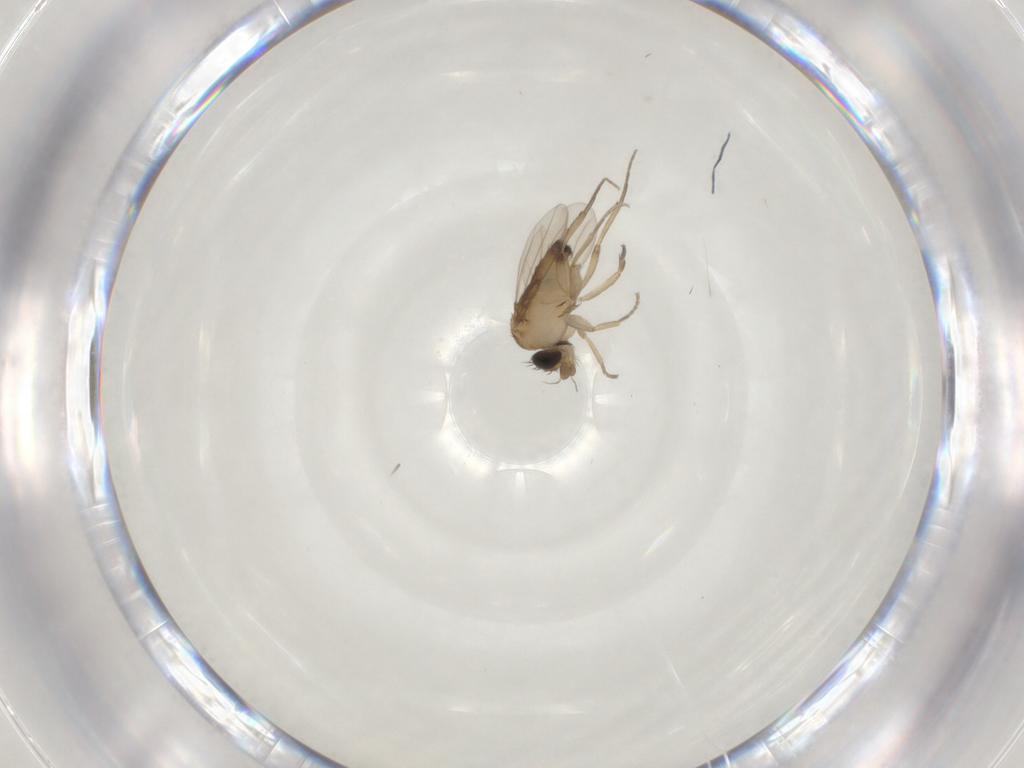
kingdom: Animalia
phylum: Arthropoda
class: Insecta
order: Diptera
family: Phoridae
